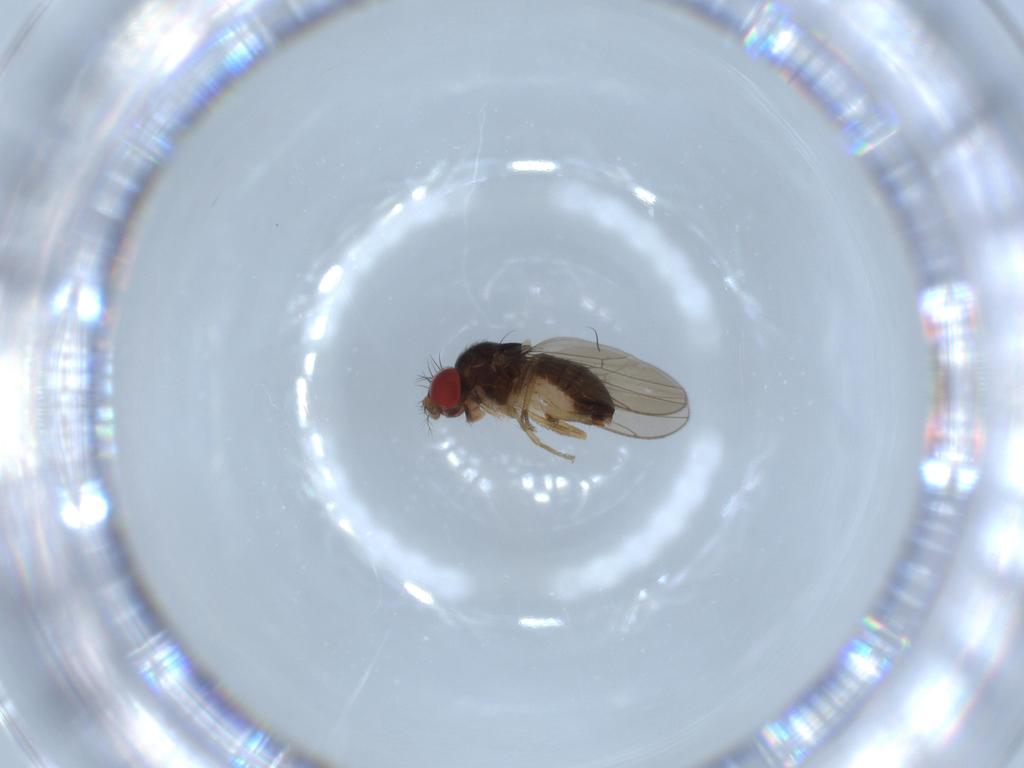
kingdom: Animalia
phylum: Arthropoda
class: Insecta
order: Diptera
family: Drosophilidae
